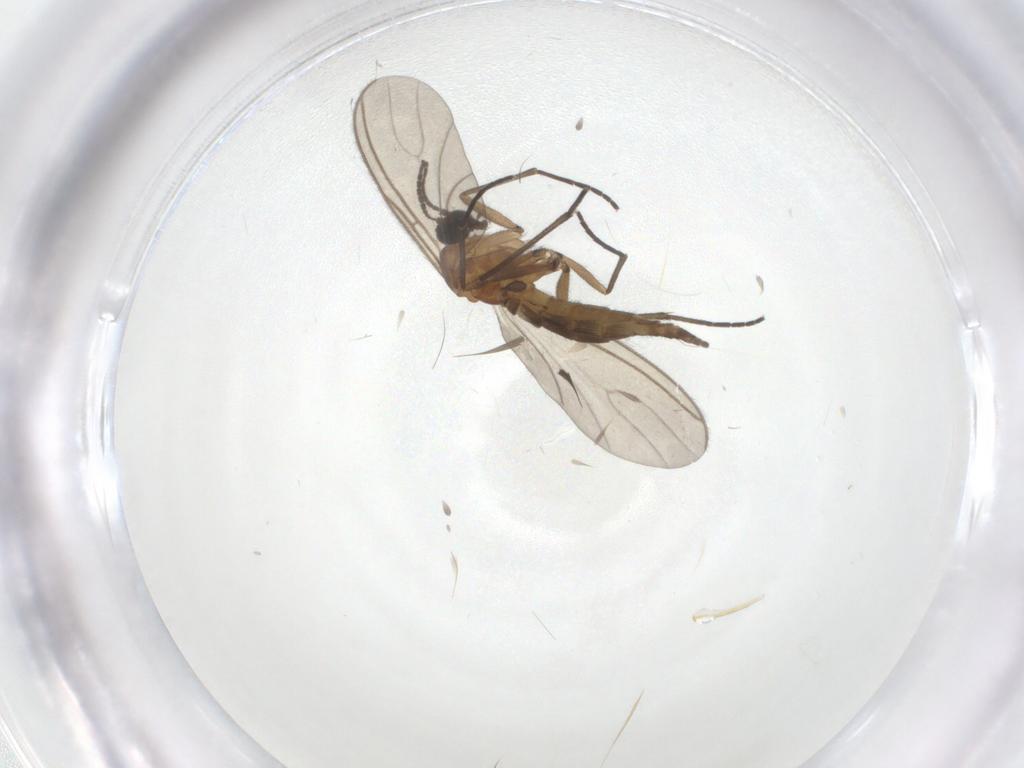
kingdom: Animalia
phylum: Arthropoda
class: Insecta
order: Diptera
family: Sciaridae
